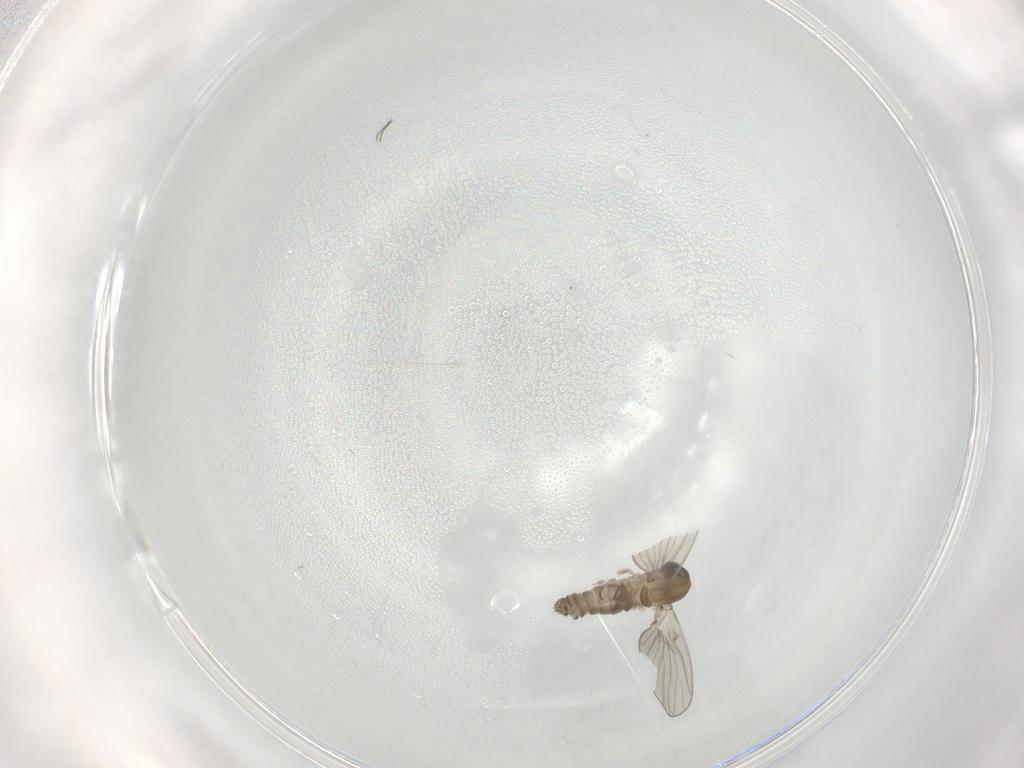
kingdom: Animalia
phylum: Arthropoda
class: Insecta
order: Diptera
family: Psychodidae
